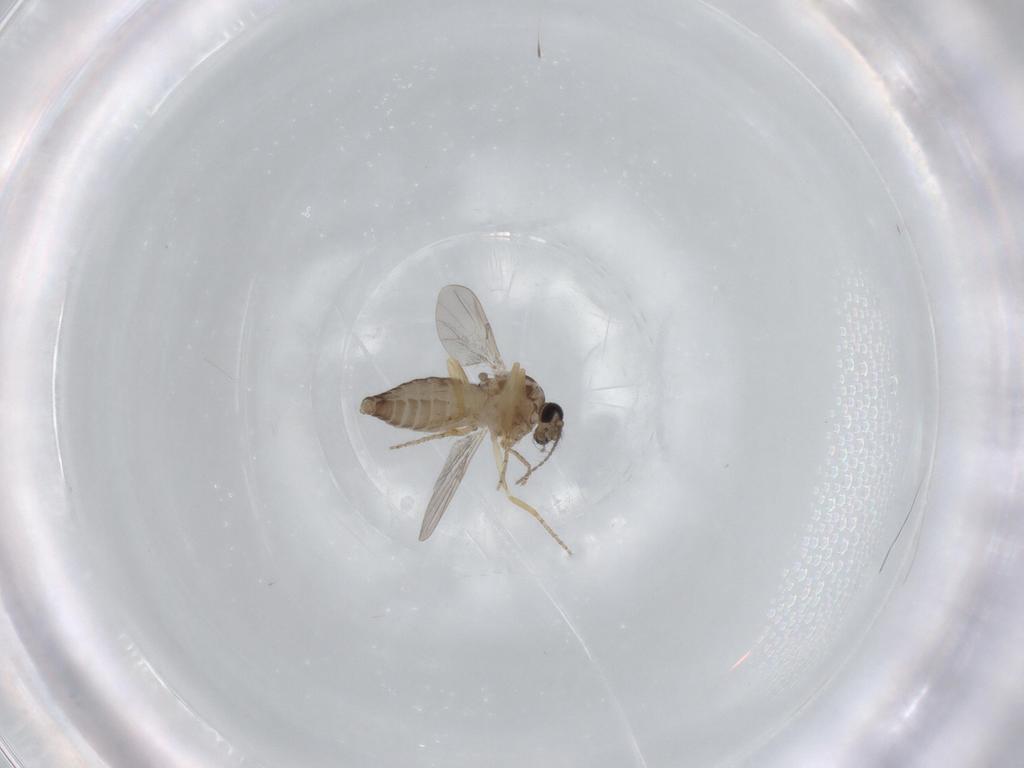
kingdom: Animalia
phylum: Arthropoda
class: Insecta
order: Diptera
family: Ceratopogonidae
